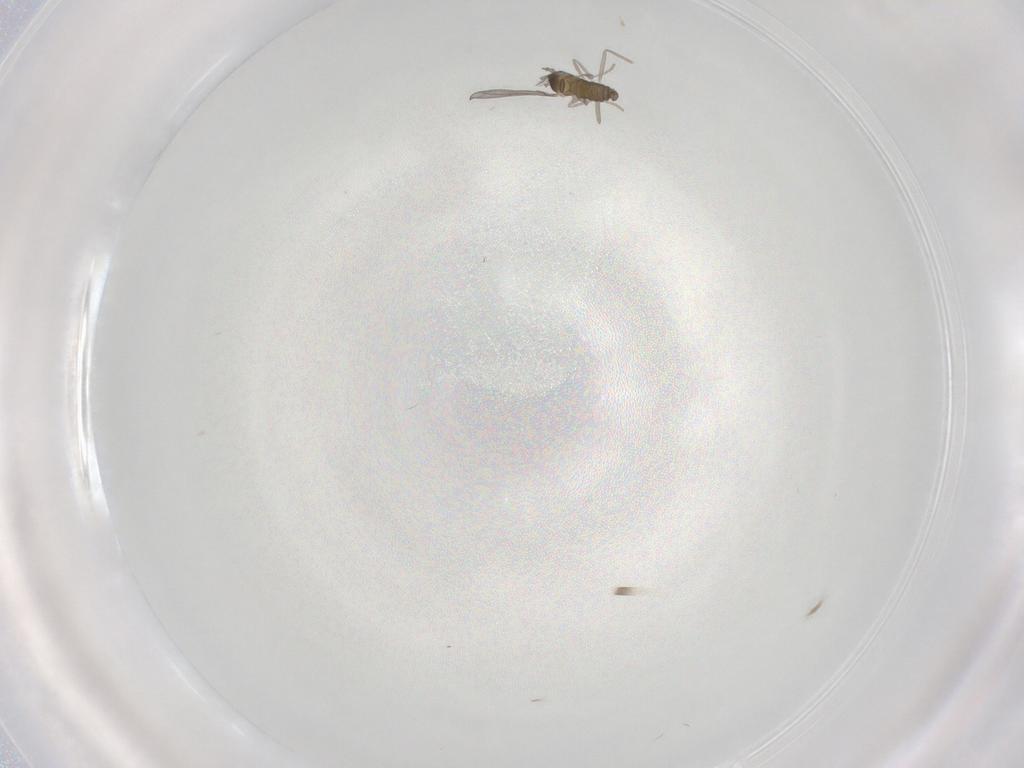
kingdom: Animalia
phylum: Arthropoda
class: Insecta
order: Diptera
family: Cecidomyiidae
